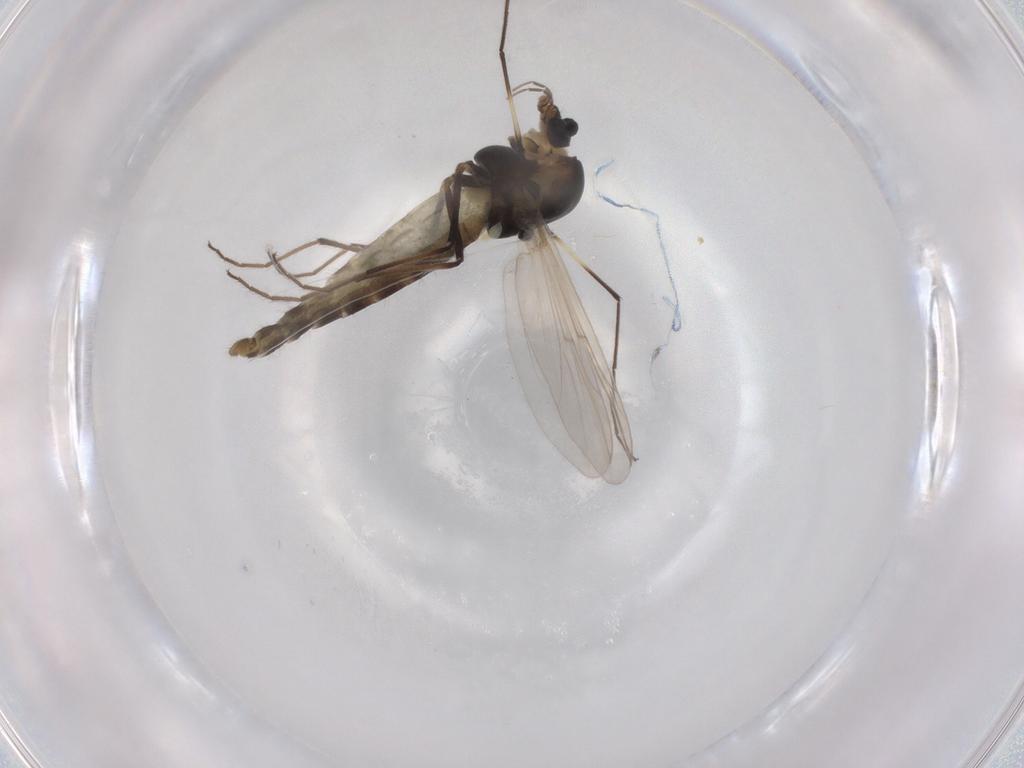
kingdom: Animalia
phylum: Arthropoda
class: Insecta
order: Diptera
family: Chironomidae
